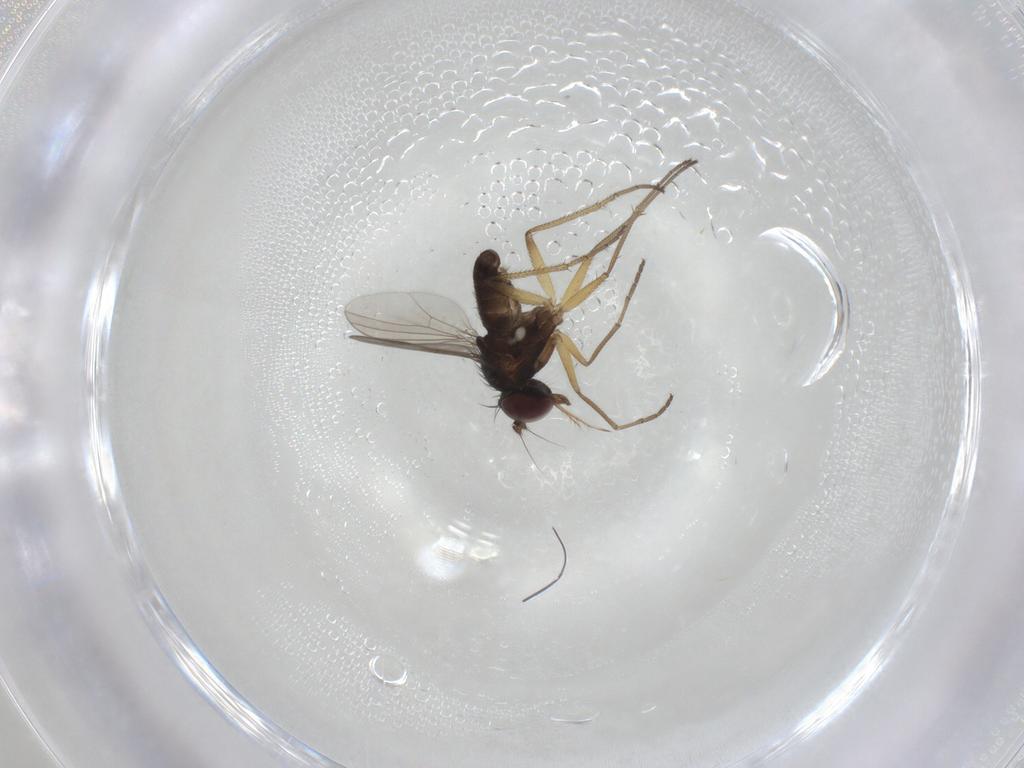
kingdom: Animalia
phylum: Arthropoda
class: Insecta
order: Diptera
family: Dolichopodidae
